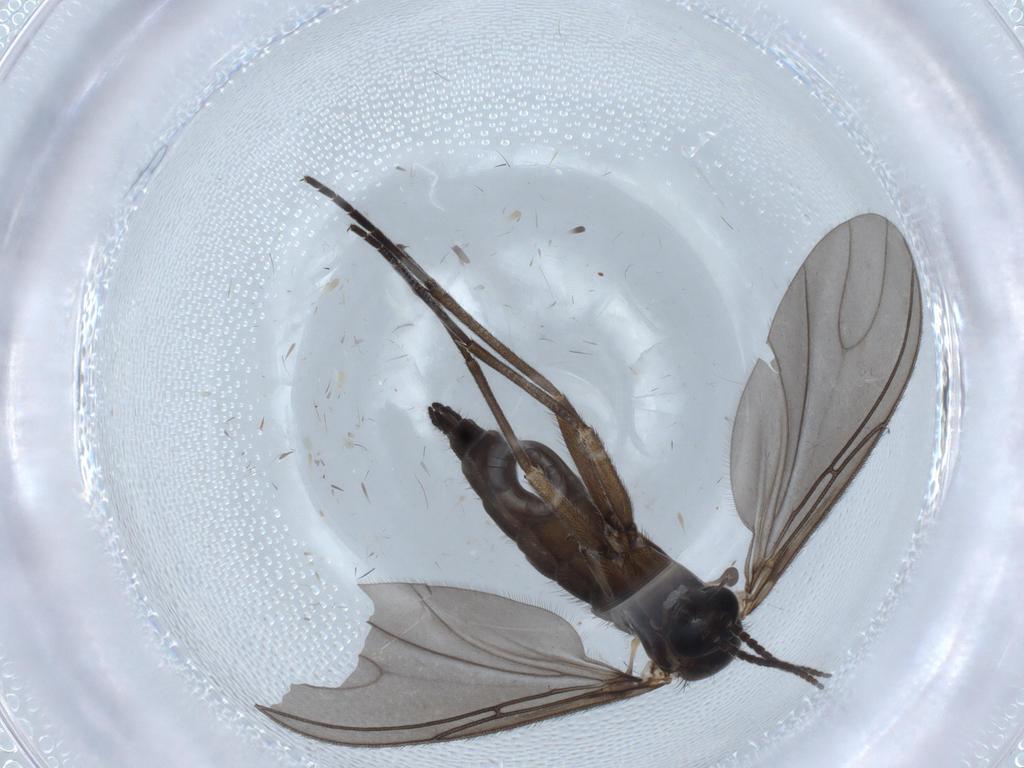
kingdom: Animalia
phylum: Arthropoda
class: Insecta
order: Diptera
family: Sciaridae
